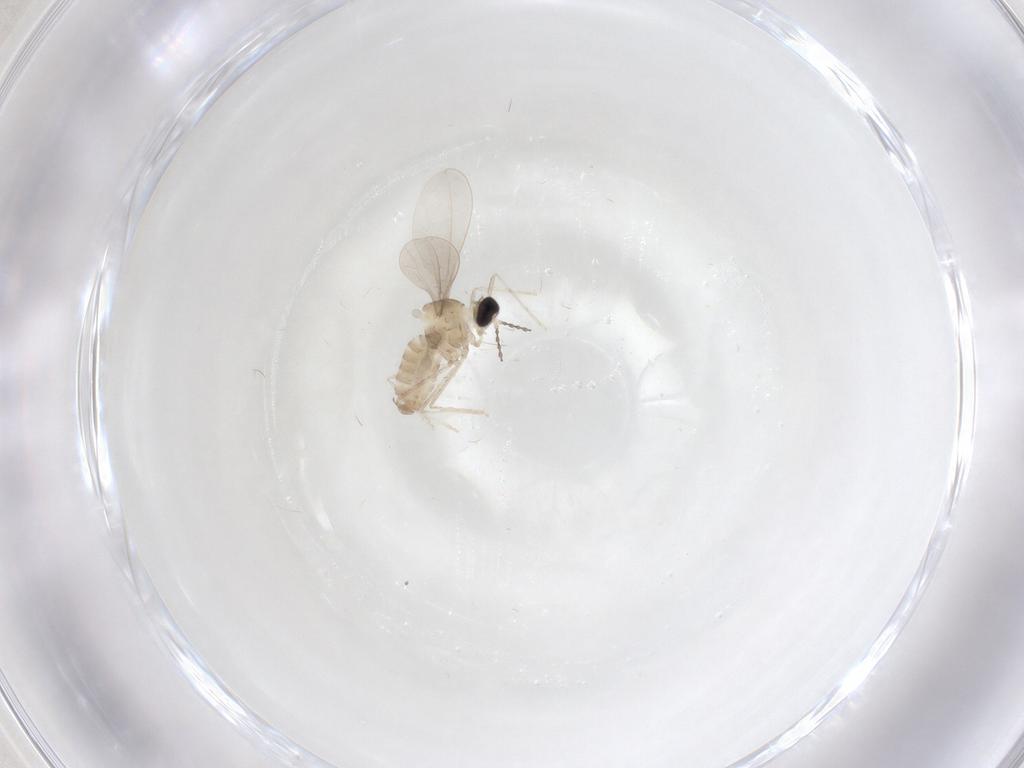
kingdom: Animalia
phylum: Arthropoda
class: Insecta
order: Diptera
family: Cecidomyiidae
